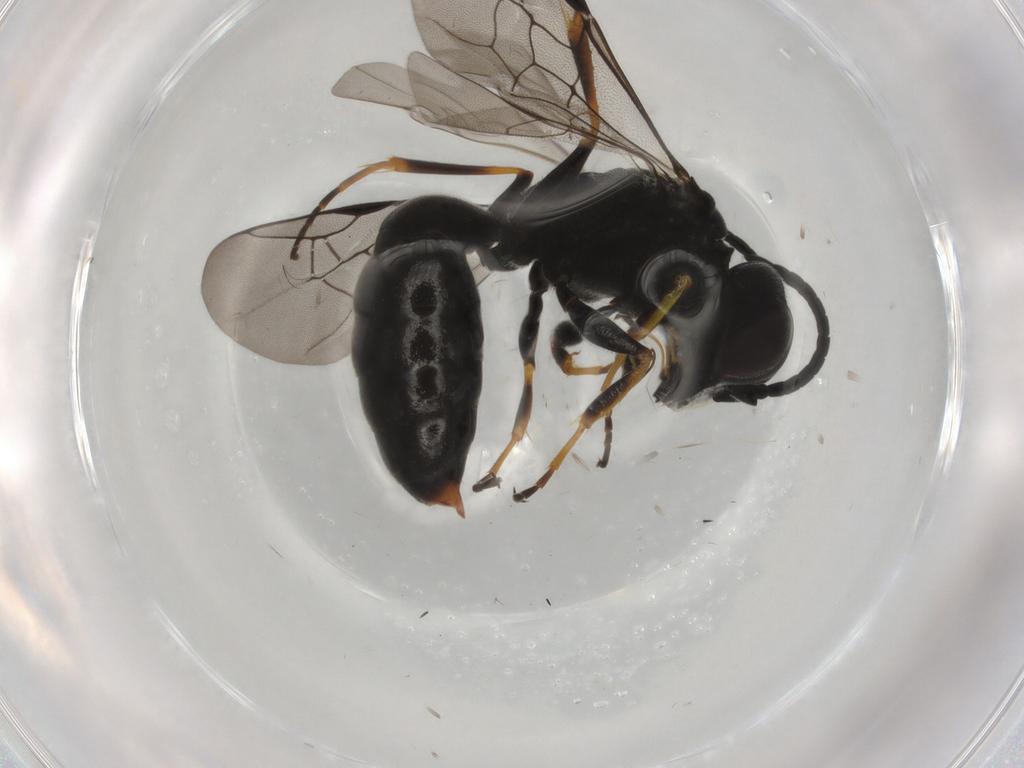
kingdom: Animalia
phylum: Arthropoda
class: Insecta
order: Hymenoptera
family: Crabronidae
